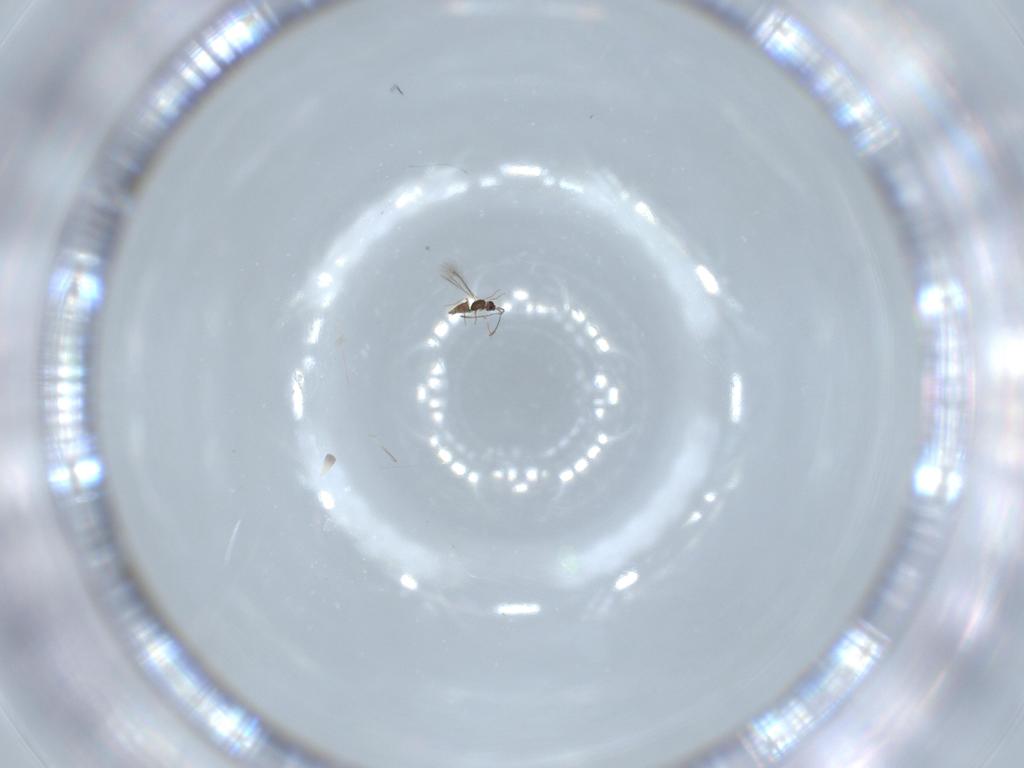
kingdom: Animalia
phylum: Arthropoda
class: Insecta
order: Hymenoptera
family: Mymaridae
